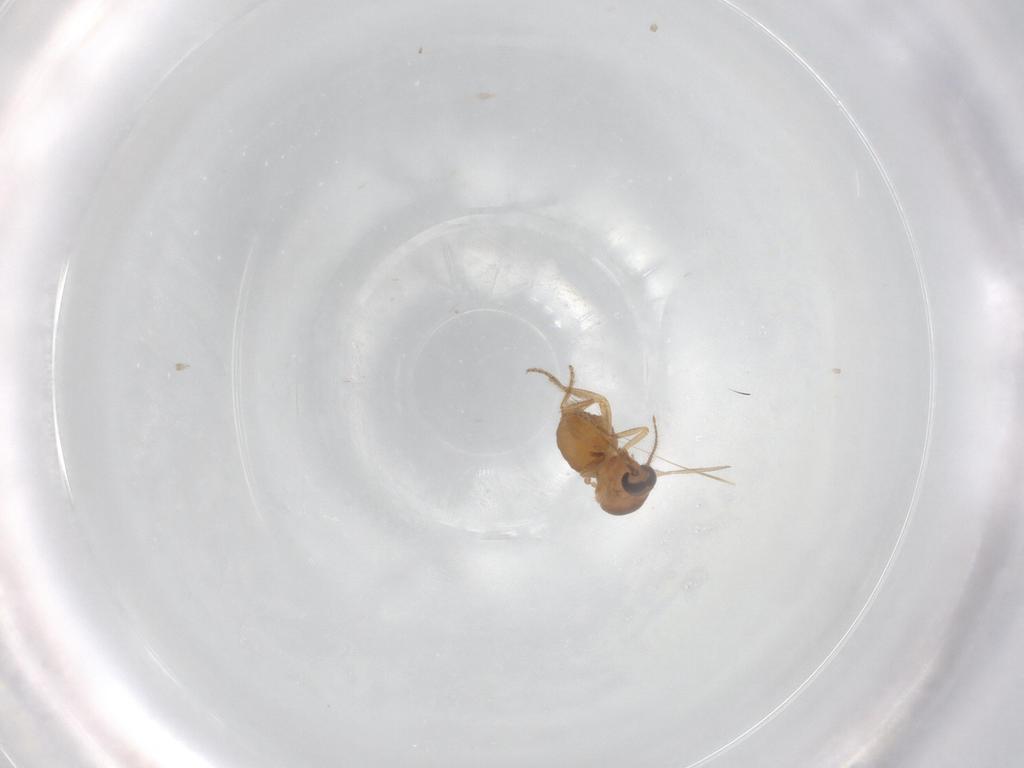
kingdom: Animalia
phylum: Arthropoda
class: Insecta
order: Diptera
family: Ceratopogonidae
